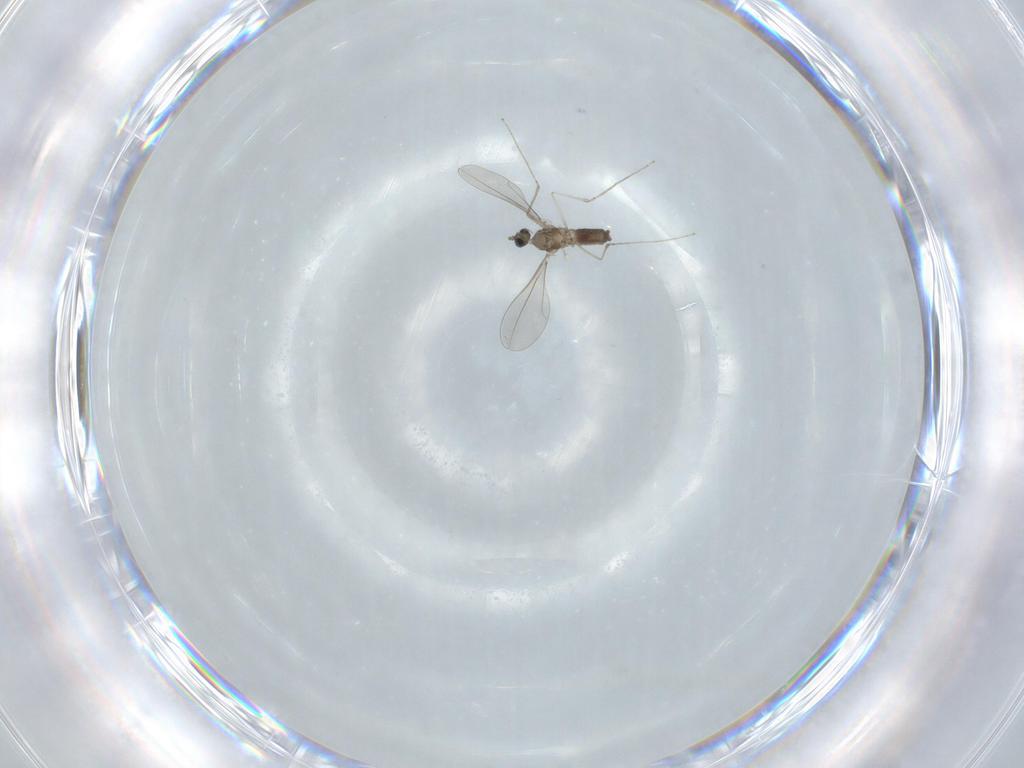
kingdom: Animalia
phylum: Arthropoda
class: Insecta
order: Diptera
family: Cecidomyiidae
